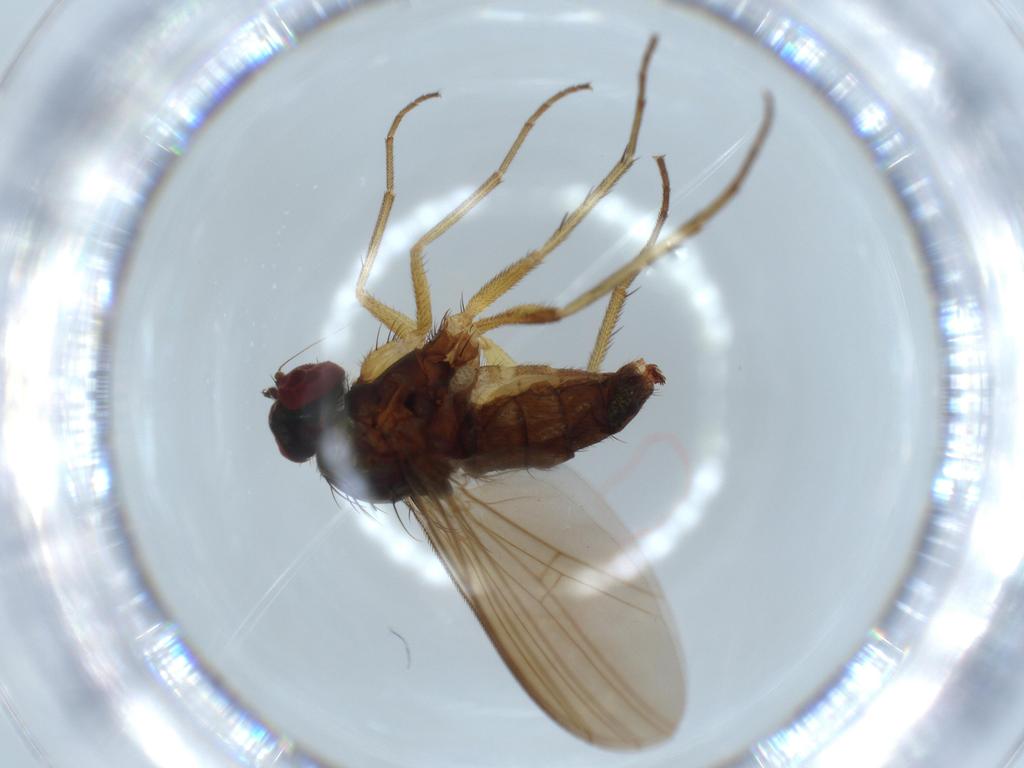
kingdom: Animalia
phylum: Arthropoda
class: Insecta
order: Diptera
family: Dolichopodidae
